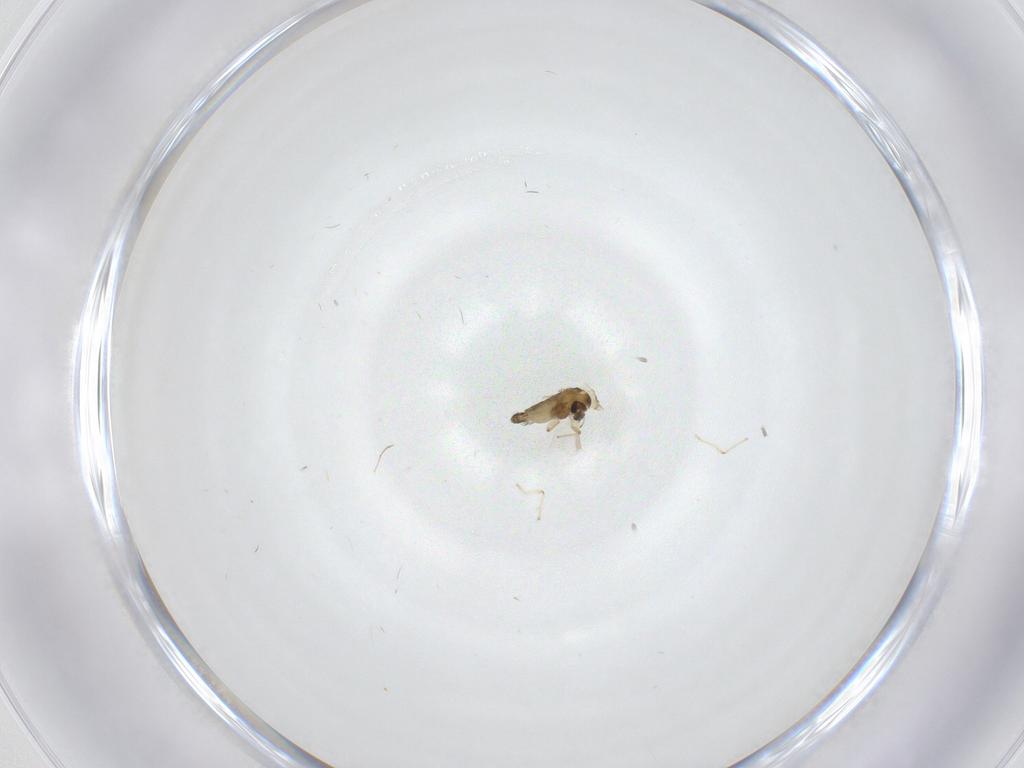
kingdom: Animalia
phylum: Arthropoda
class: Insecta
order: Diptera
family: Chironomidae
